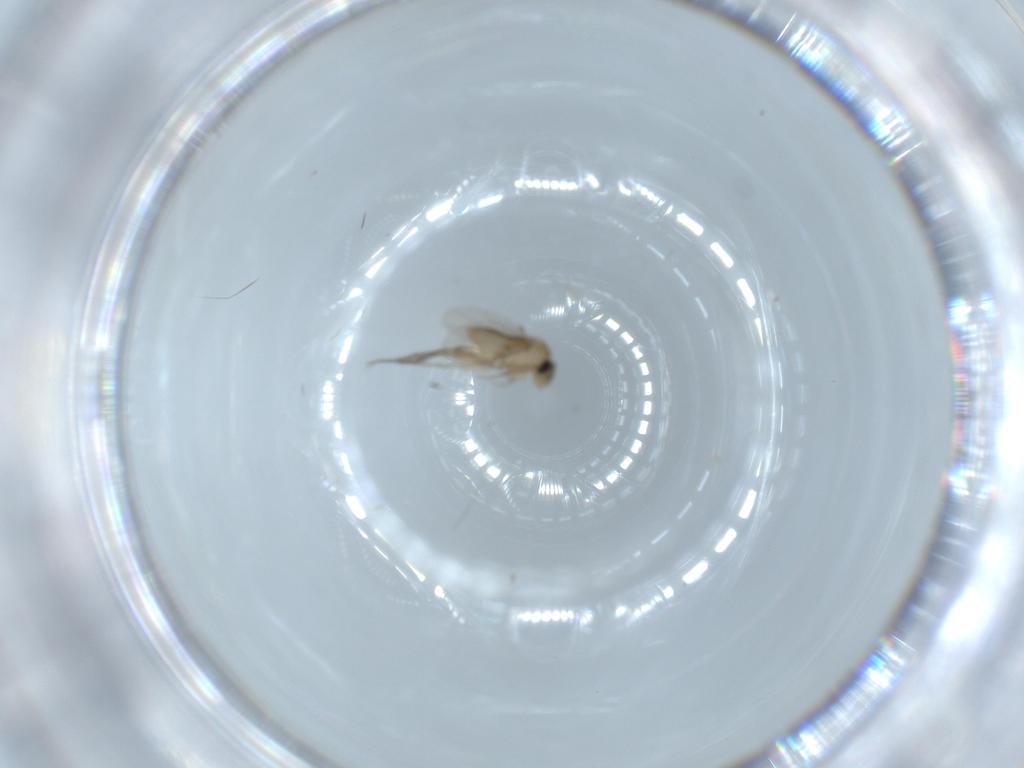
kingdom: Animalia
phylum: Arthropoda
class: Insecta
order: Diptera
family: Phoridae
